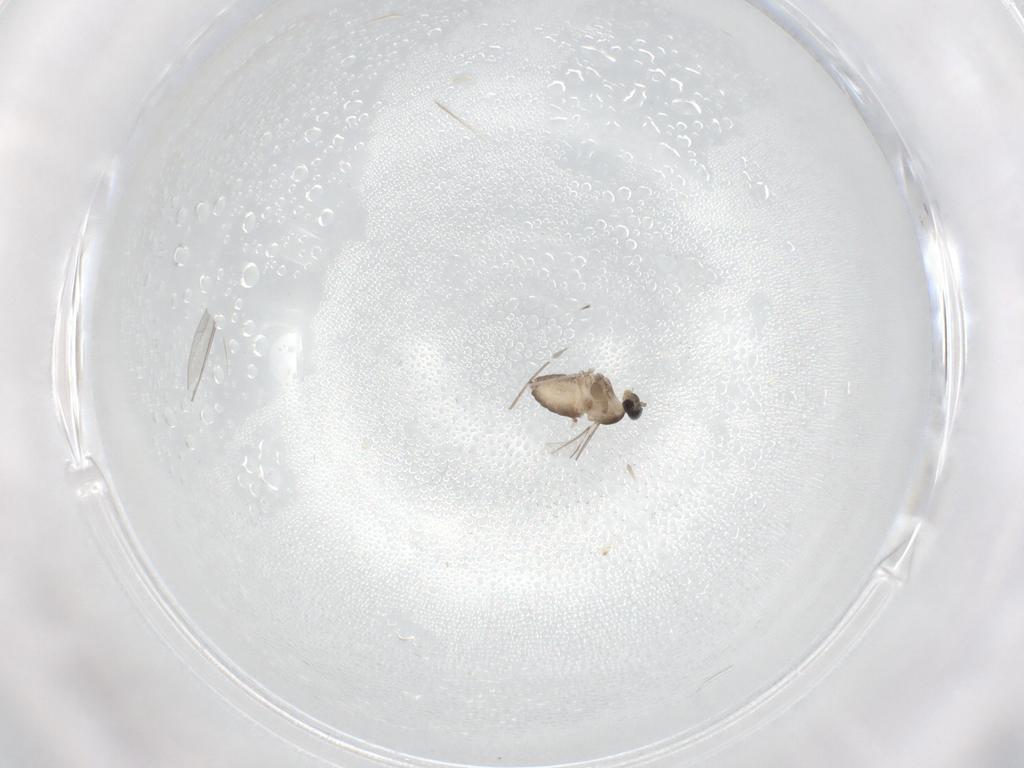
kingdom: Animalia
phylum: Arthropoda
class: Insecta
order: Diptera
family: Cecidomyiidae
